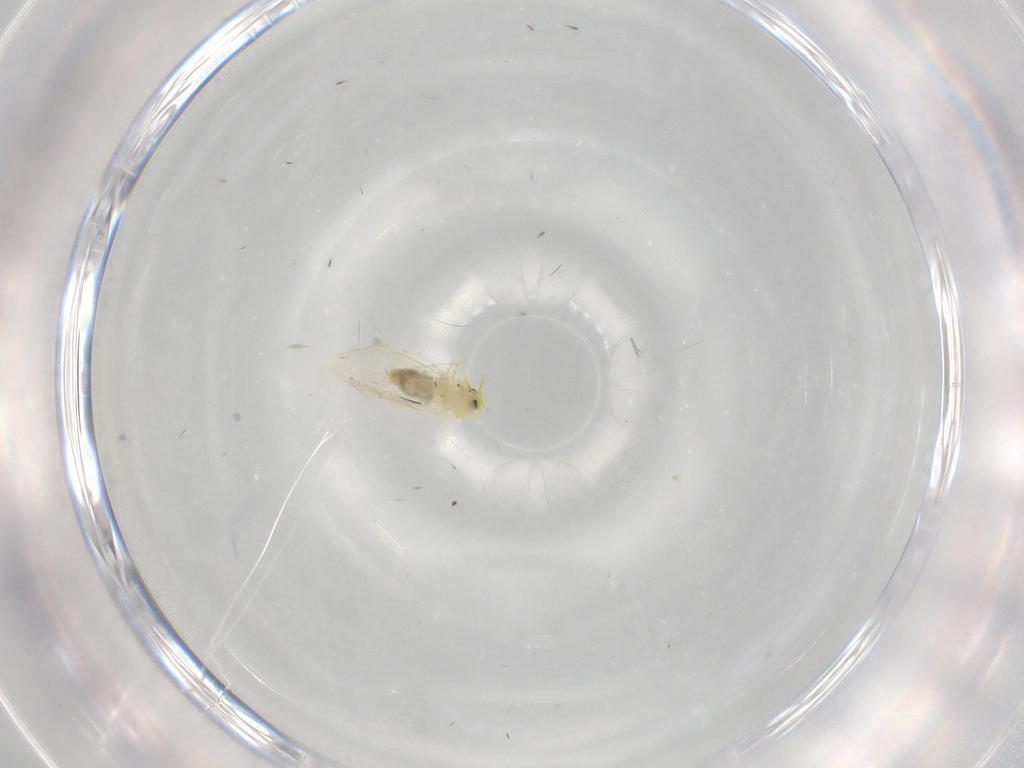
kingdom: Animalia
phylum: Arthropoda
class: Insecta
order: Hemiptera
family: Aleyrodidae
